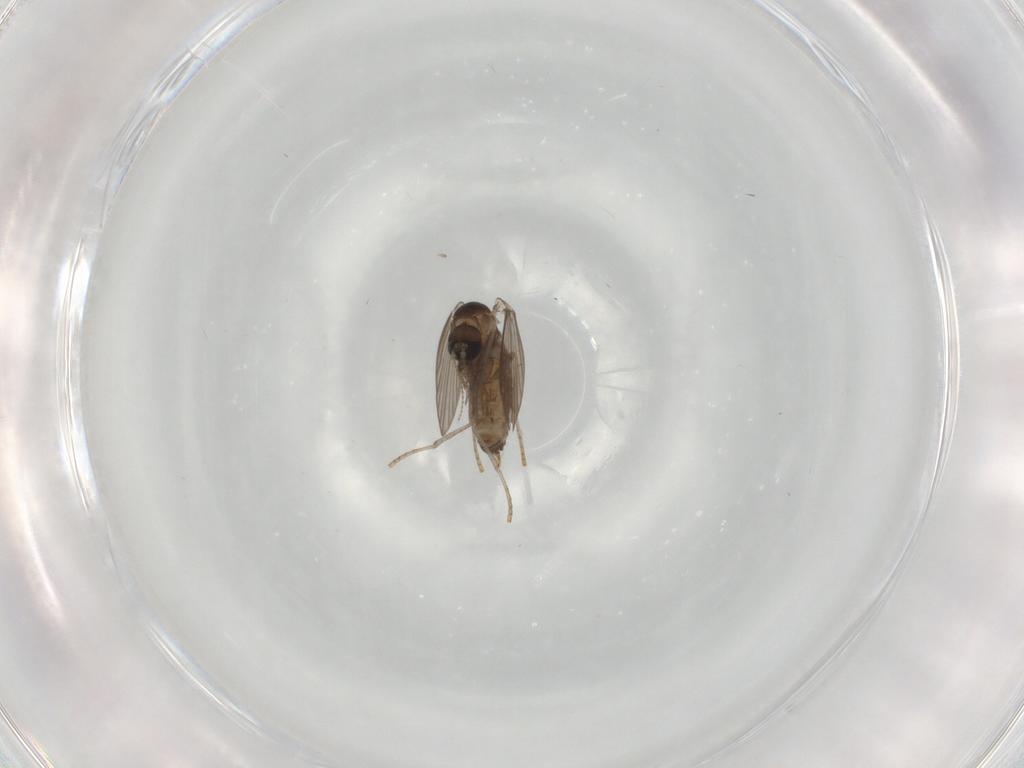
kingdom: Animalia
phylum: Arthropoda
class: Insecta
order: Diptera
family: Psychodidae
